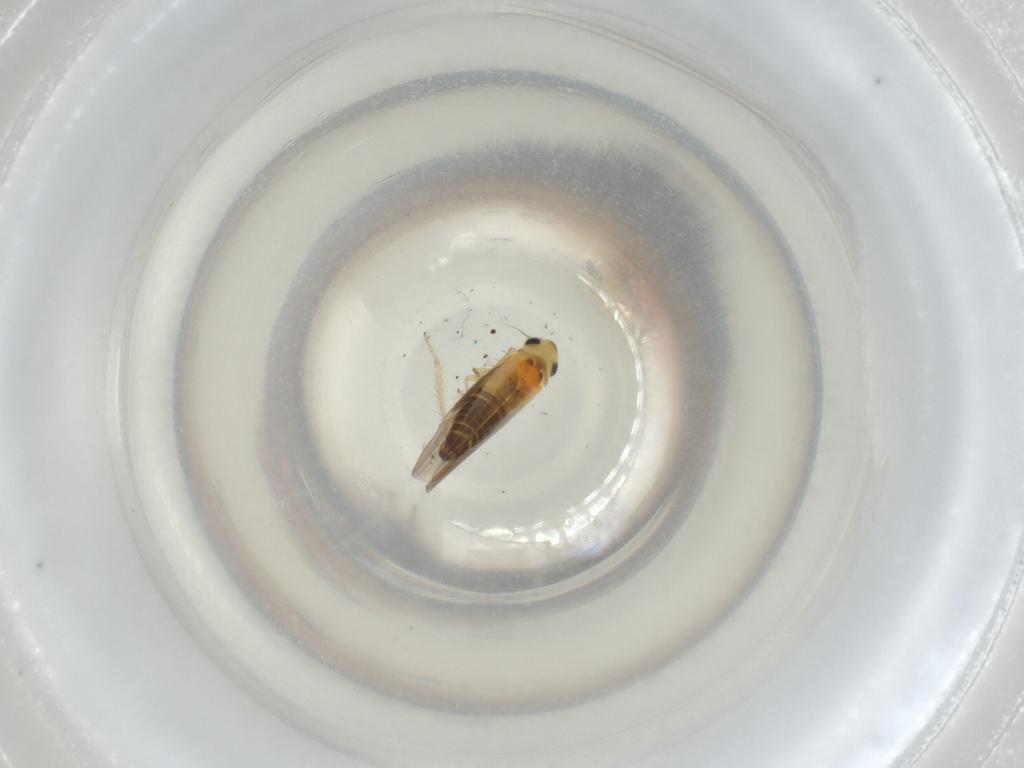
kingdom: Animalia
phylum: Arthropoda
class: Insecta
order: Hemiptera
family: Cicadellidae
